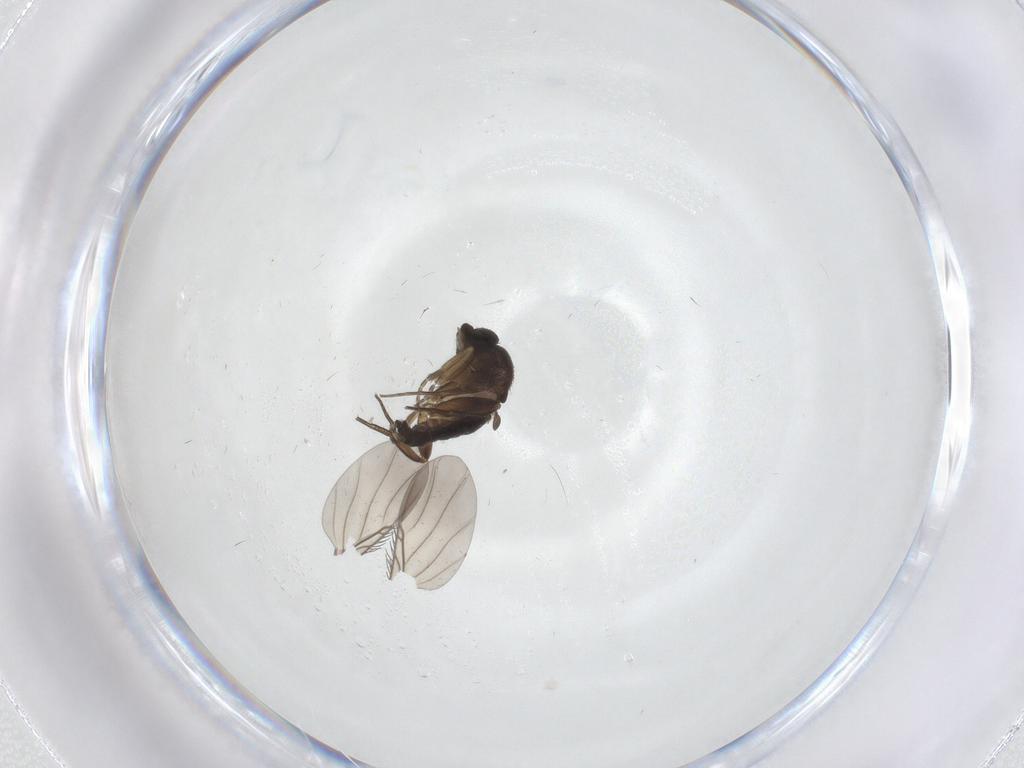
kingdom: Animalia
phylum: Arthropoda
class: Insecta
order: Diptera
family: Phoridae
